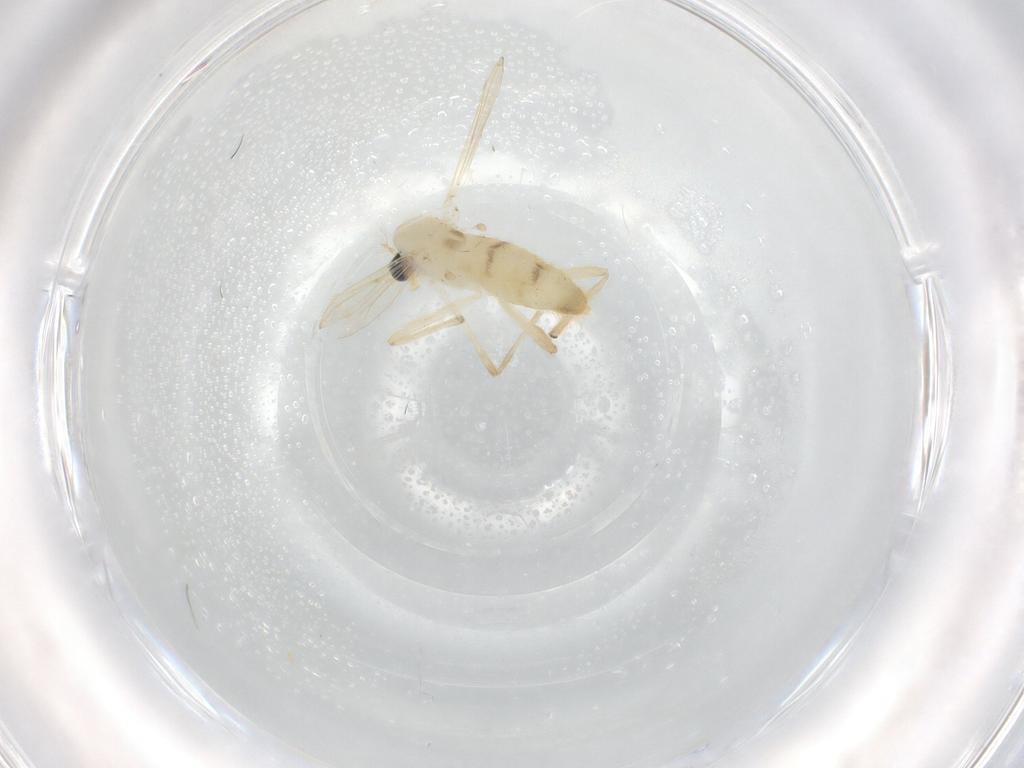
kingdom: Animalia
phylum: Arthropoda
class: Insecta
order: Diptera
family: Chironomidae
